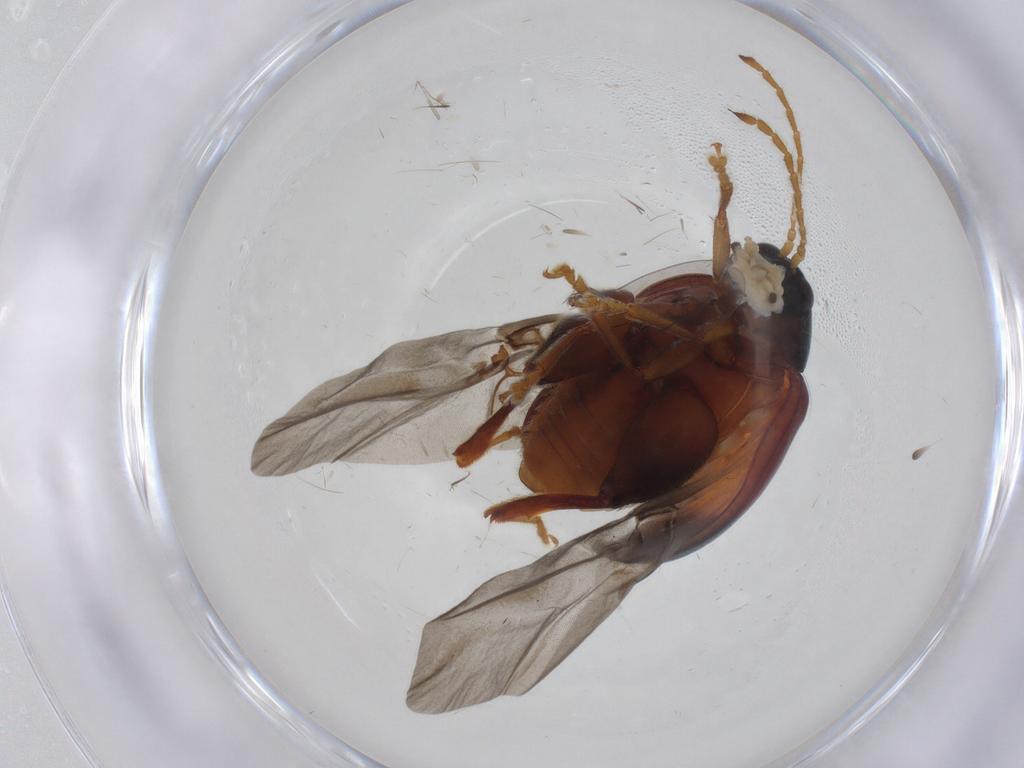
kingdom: Animalia
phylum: Arthropoda
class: Insecta
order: Coleoptera
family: Chrysomelidae
